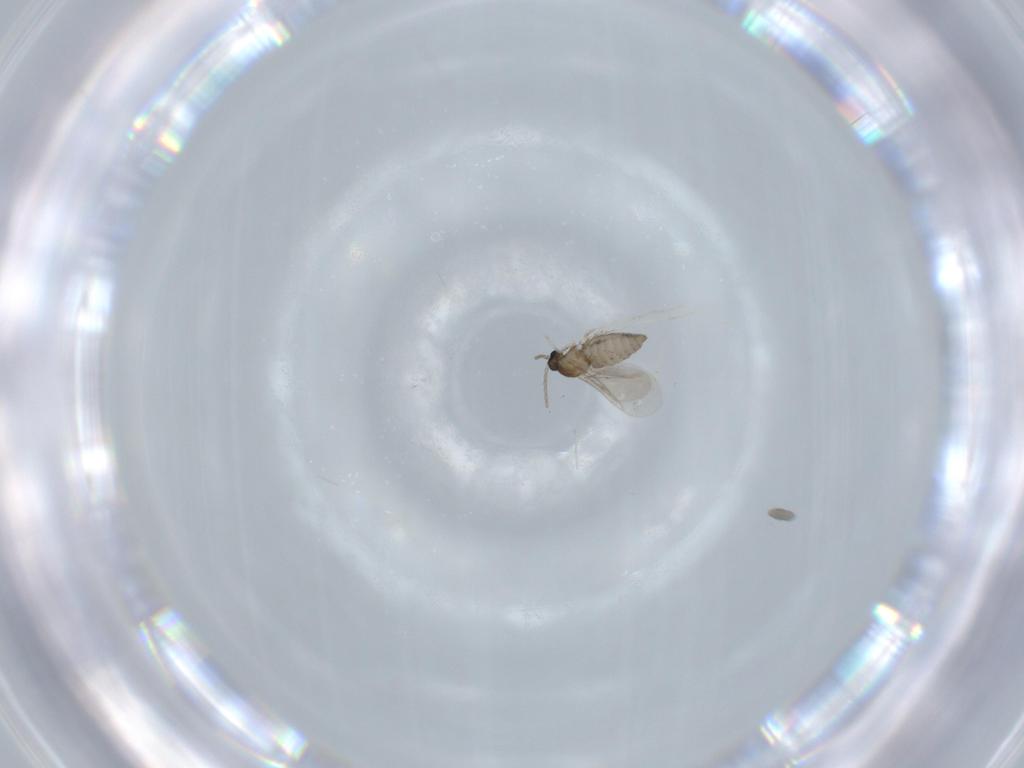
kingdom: Animalia
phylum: Arthropoda
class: Insecta
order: Diptera
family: Cecidomyiidae
